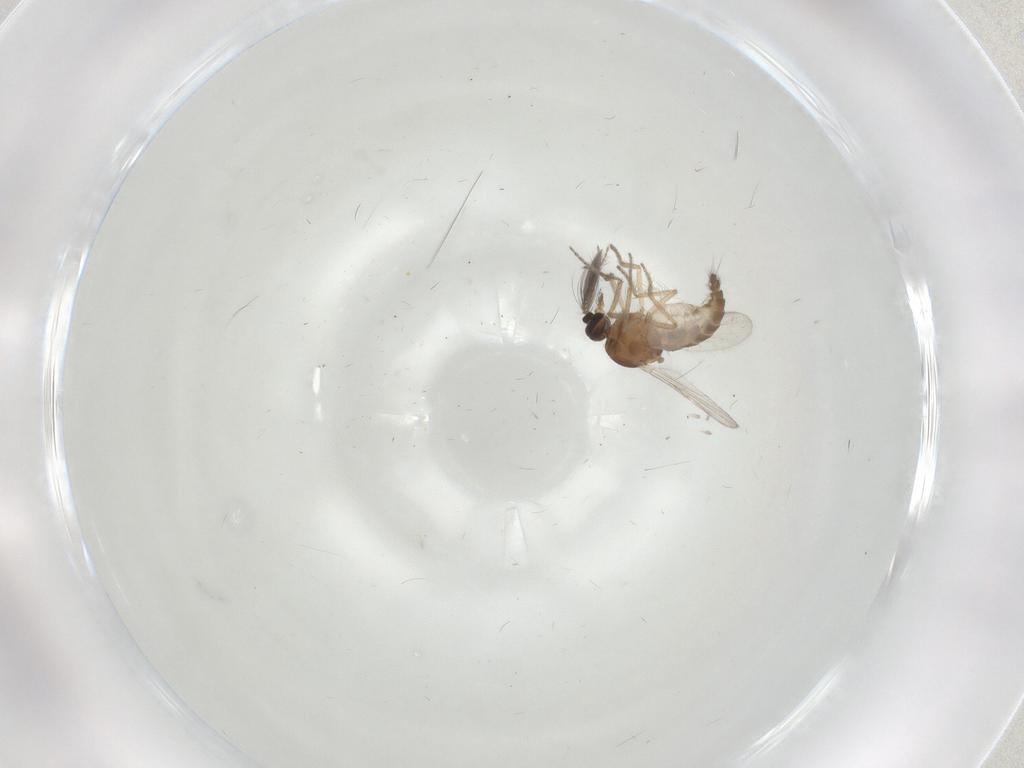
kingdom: Animalia
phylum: Arthropoda
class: Insecta
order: Diptera
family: Ceratopogonidae
